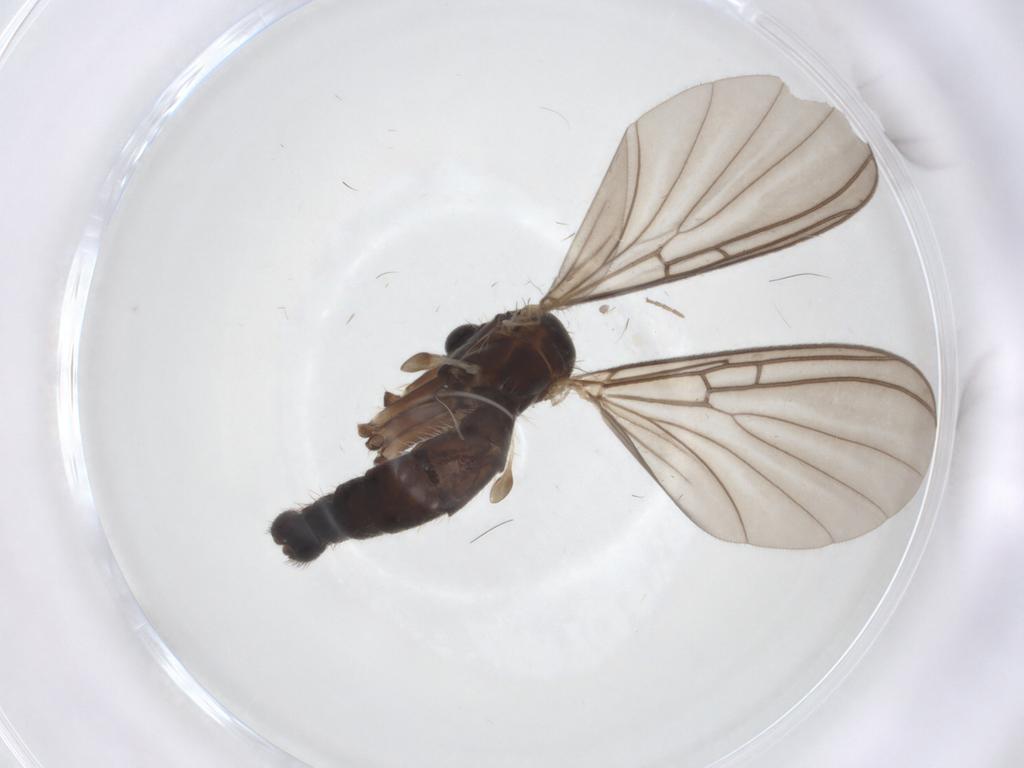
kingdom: Animalia
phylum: Arthropoda
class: Insecta
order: Diptera
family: Mycetophilidae
